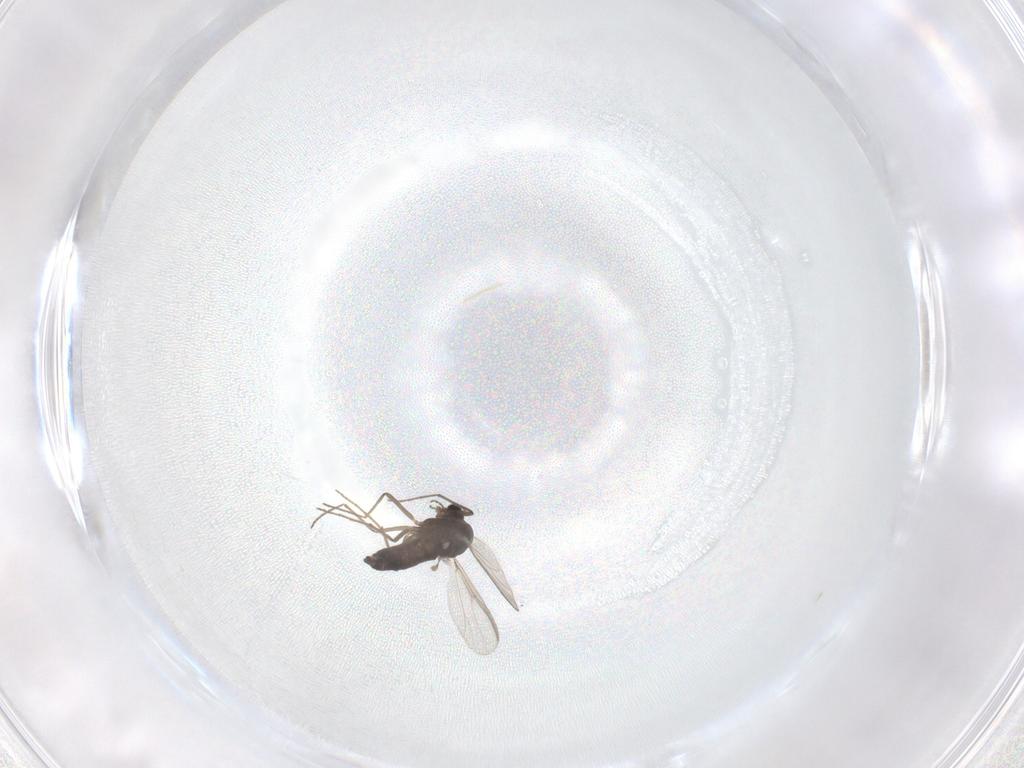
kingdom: Animalia
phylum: Arthropoda
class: Insecta
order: Diptera
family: Chironomidae
